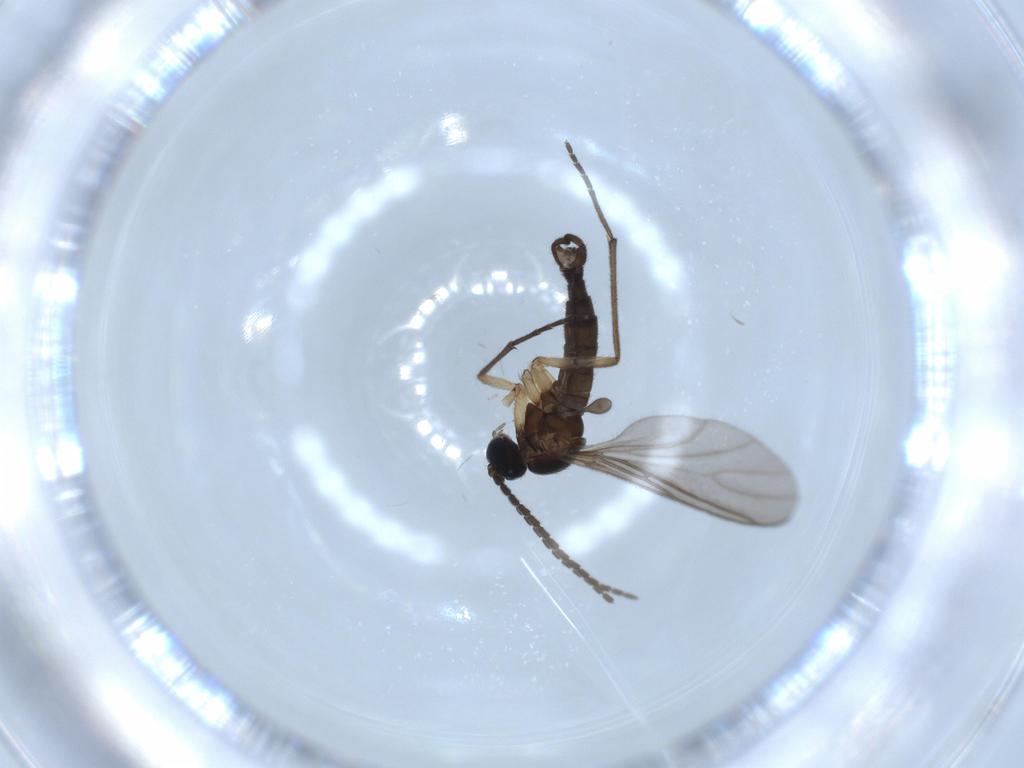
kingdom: Animalia
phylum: Arthropoda
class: Insecta
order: Diptera
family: Sciaridae
